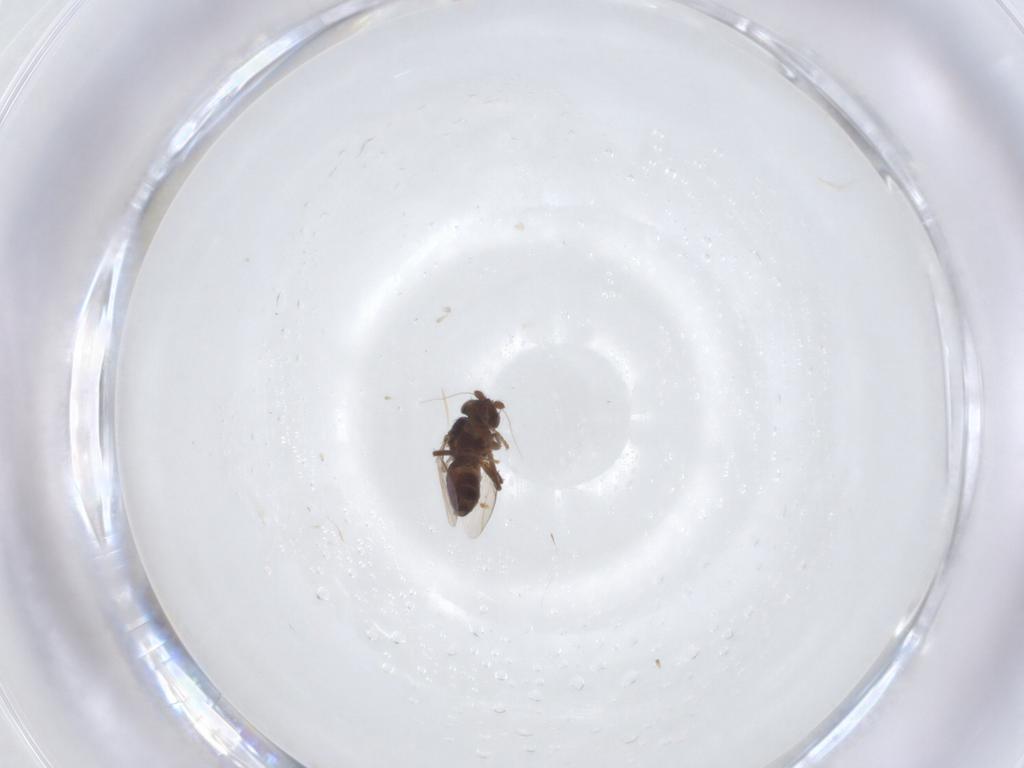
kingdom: Animalia
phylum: Arthropoda
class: Insecta
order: Diptera
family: Sphaeroceridae
